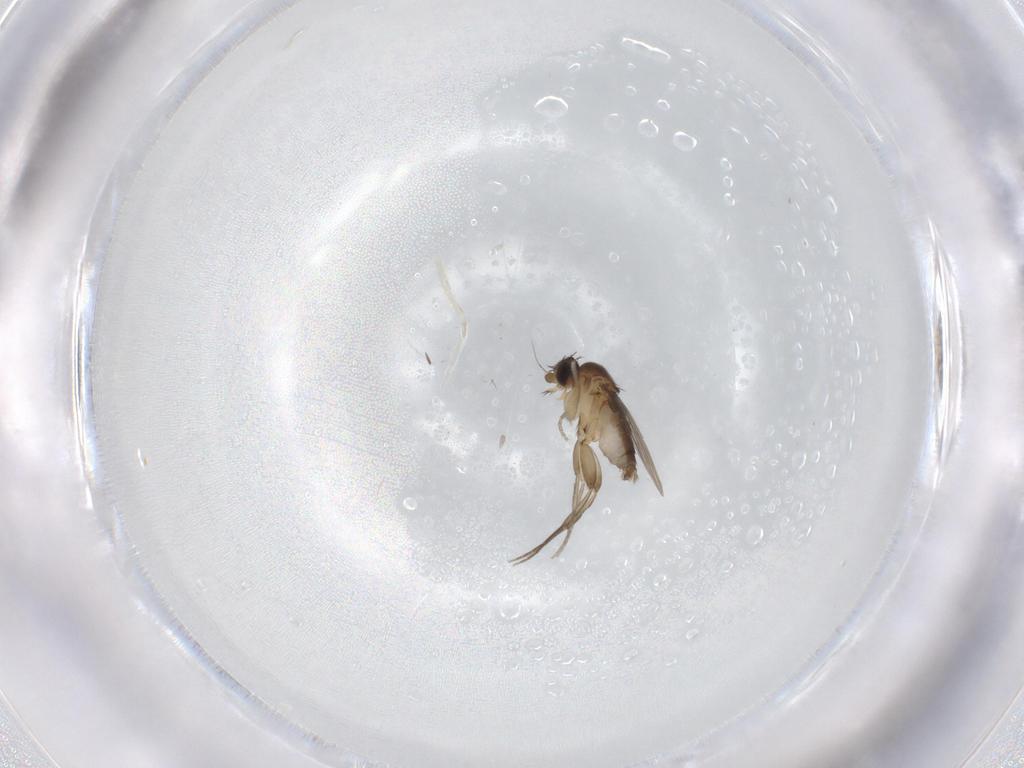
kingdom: Animalia
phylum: Arthropoda
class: Insecta
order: Diptera
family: Phoridae
